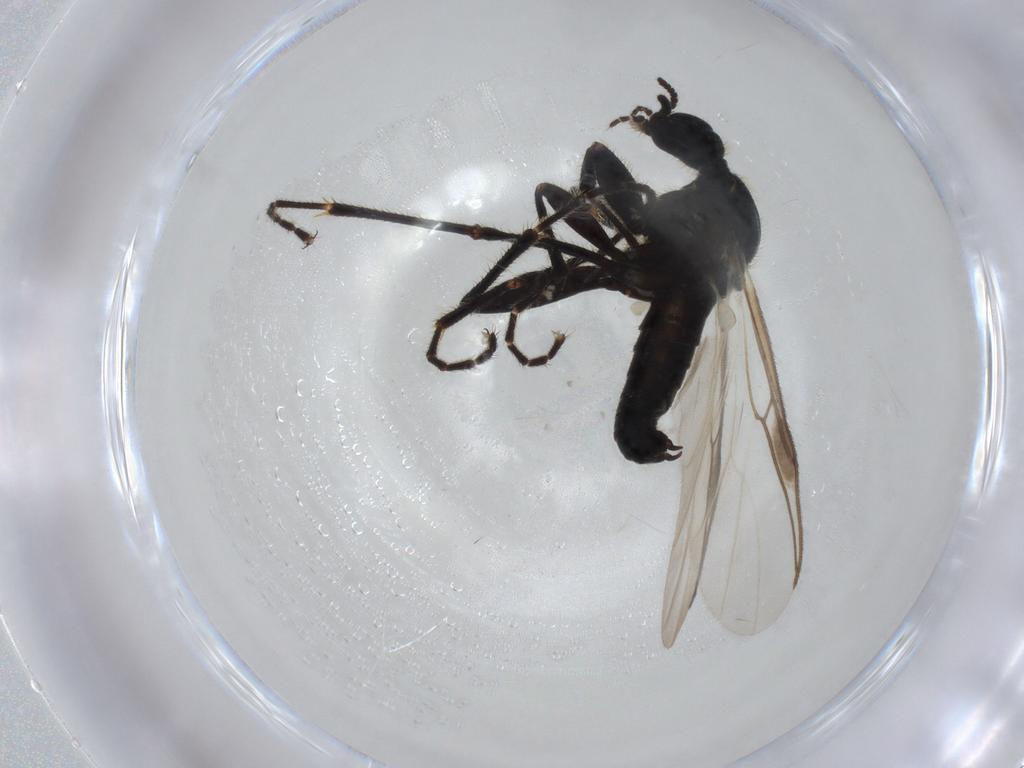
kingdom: Animalia
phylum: Arthropoda
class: Insecta
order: Diptera
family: Bibionidae
